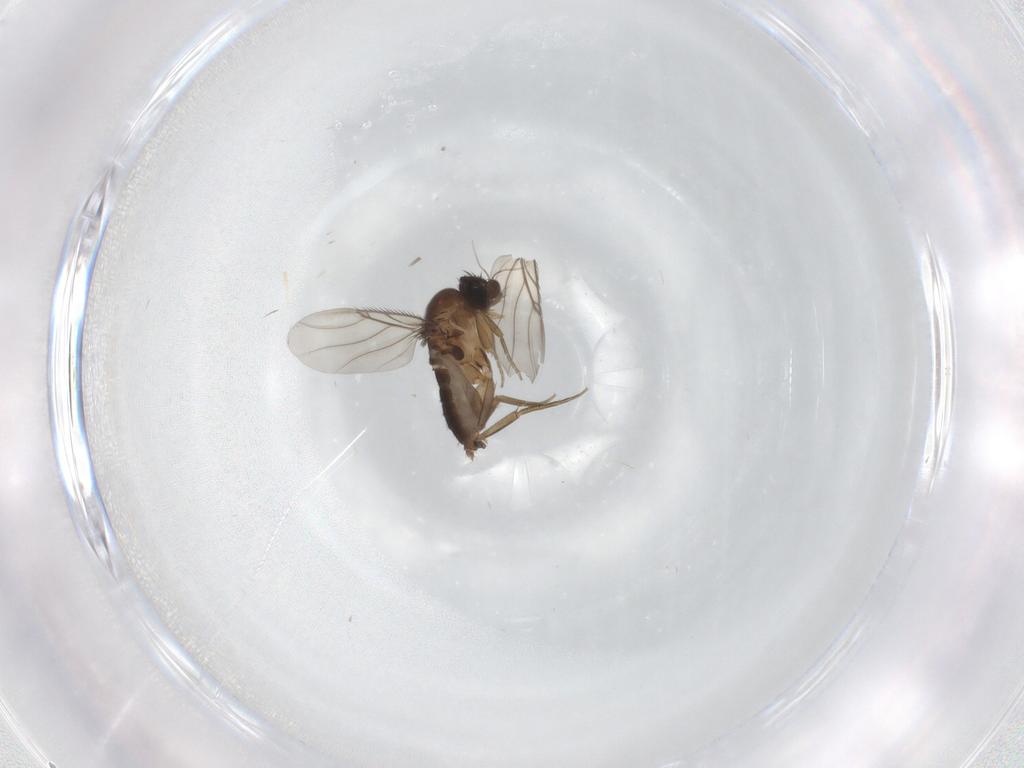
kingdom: Animalia
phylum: Arthropoda
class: Insecta
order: Diptera
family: Phoridae
